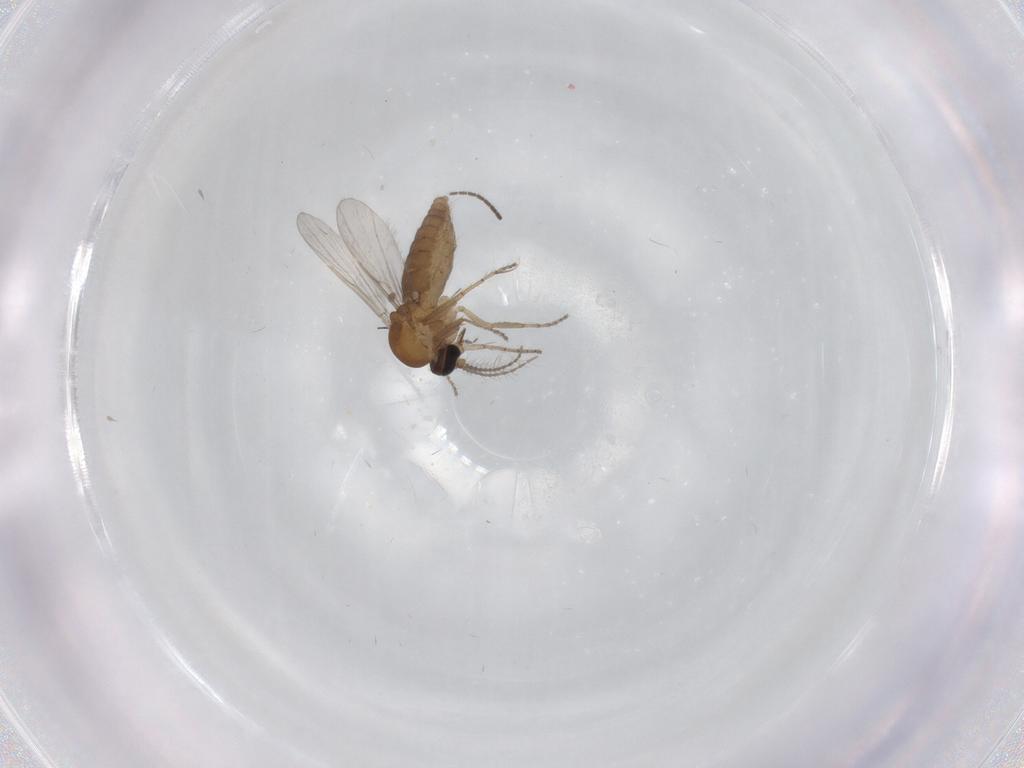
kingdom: Animalia
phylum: Arthropoda
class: Insecta
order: Diptera
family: Cecidomyiidae
